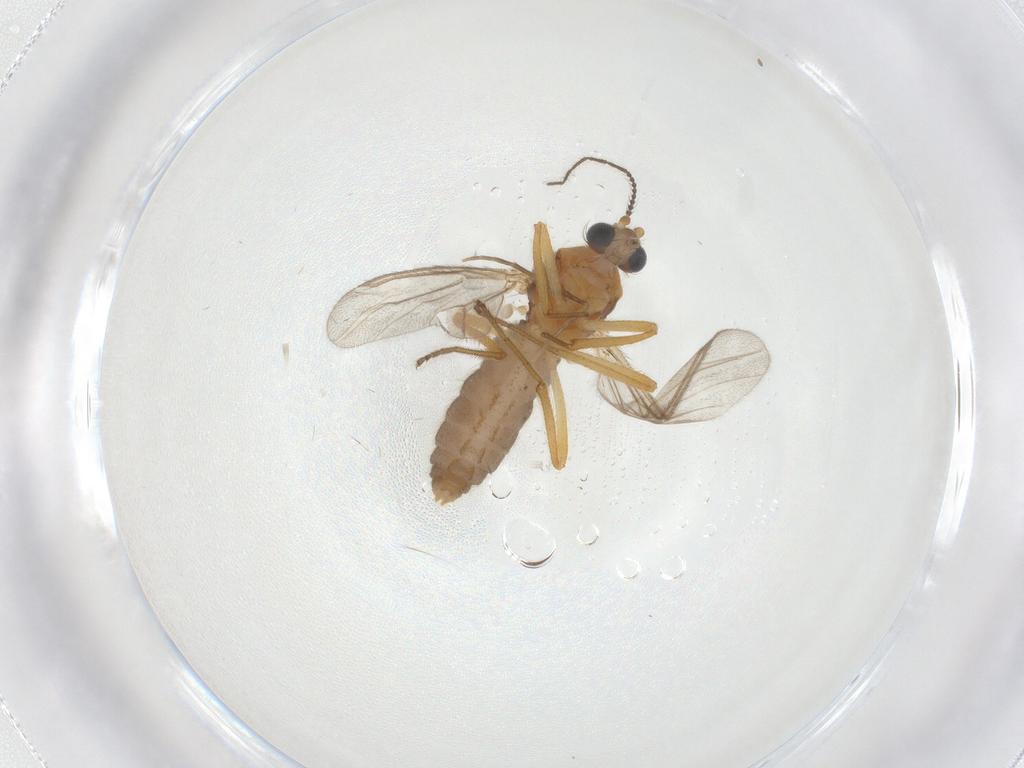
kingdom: Animalia
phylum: Arthropoda
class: Insecta
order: Diptera
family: Ceratopogonidae
